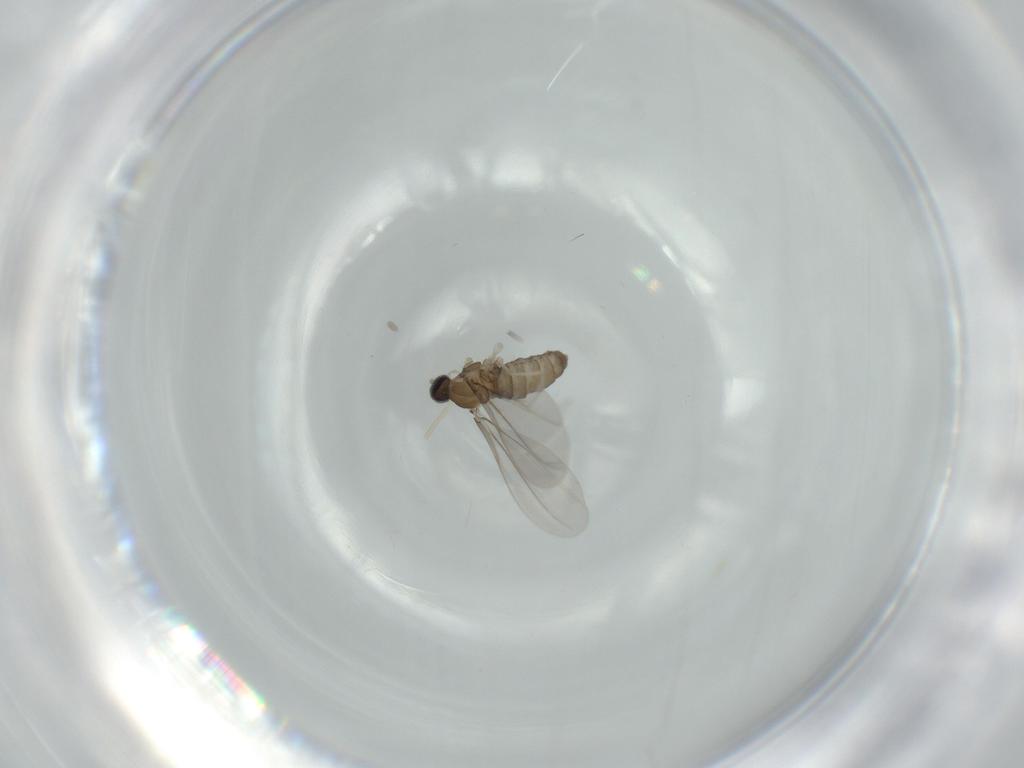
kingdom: Animalia
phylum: Arthropoda
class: Insecta
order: Diptera
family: Cecidomyiidae
